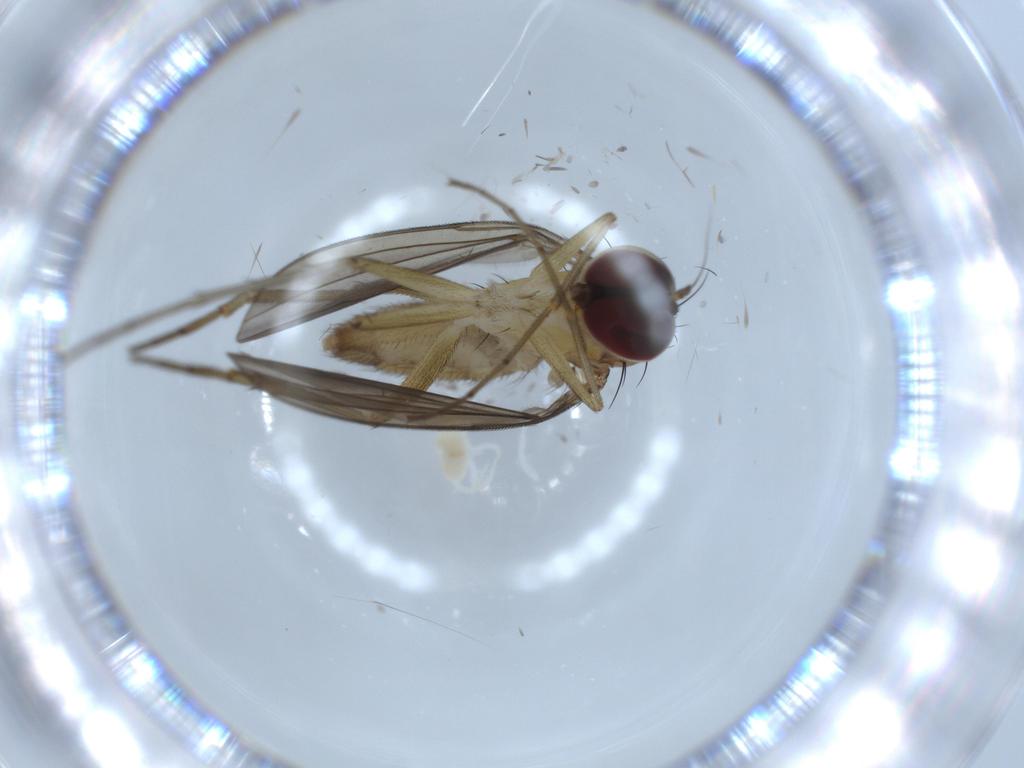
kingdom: Animalia
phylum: Arthropoda
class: Insecta
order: Diptera
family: Dolichopodidae
